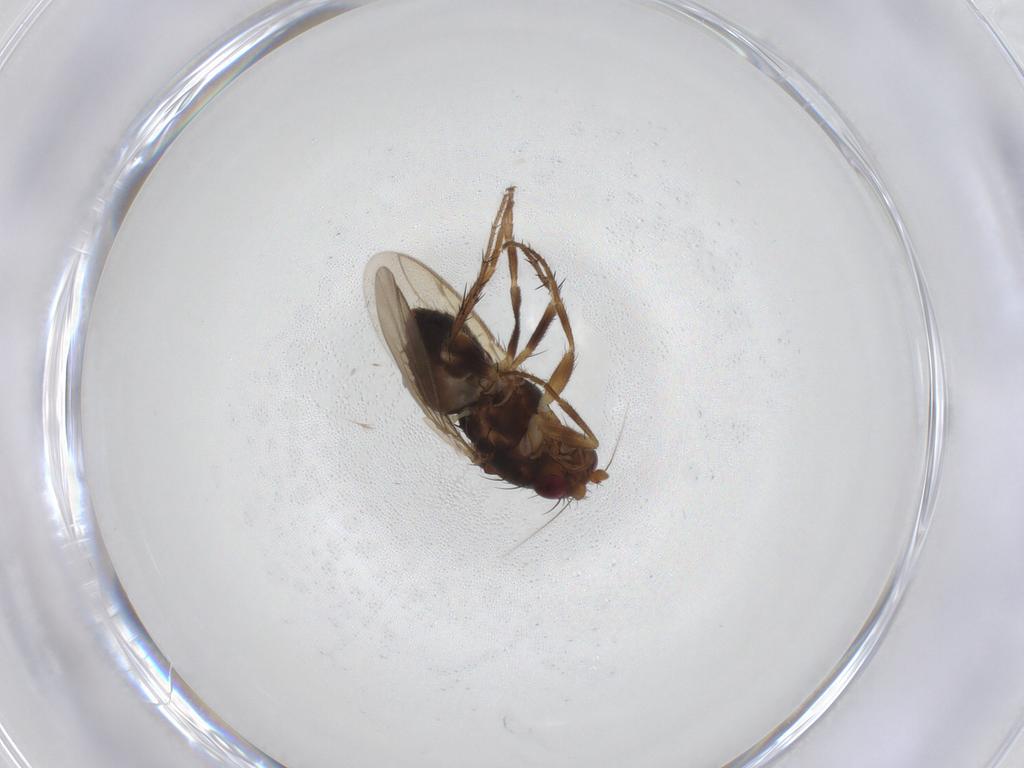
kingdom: Animalia
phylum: Arthropoda
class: Insecta
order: Diptera
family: Sphaeroceridae
